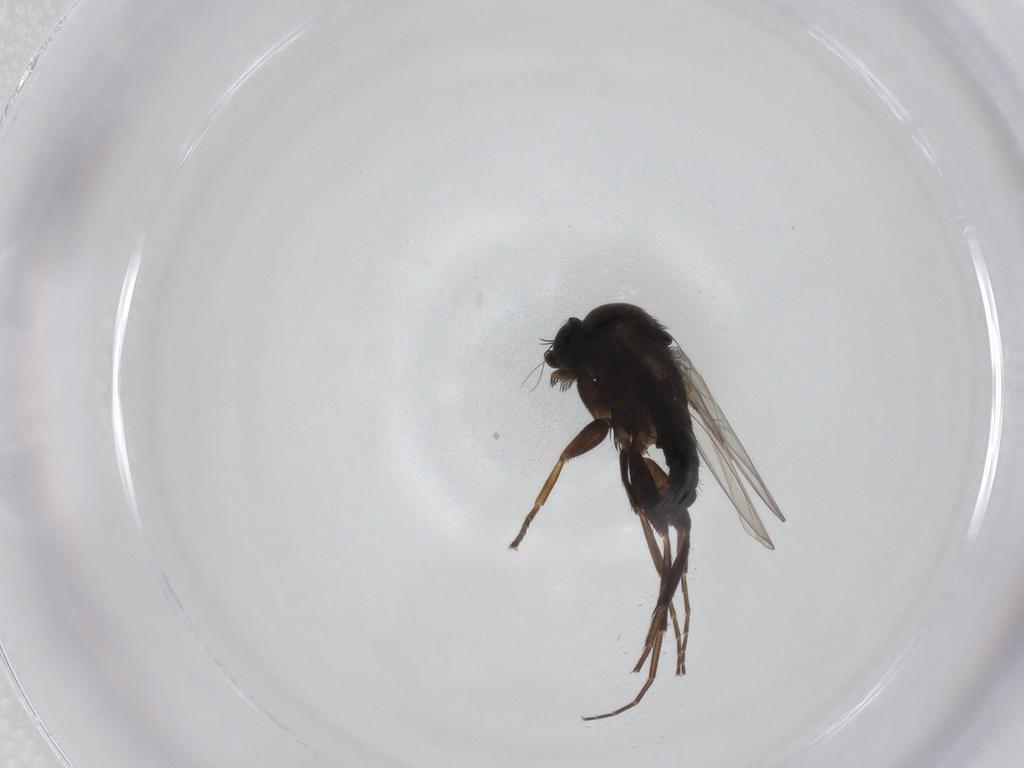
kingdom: Animalia
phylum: Arthropoda
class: Insecta
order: Diptera
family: Phoridae
